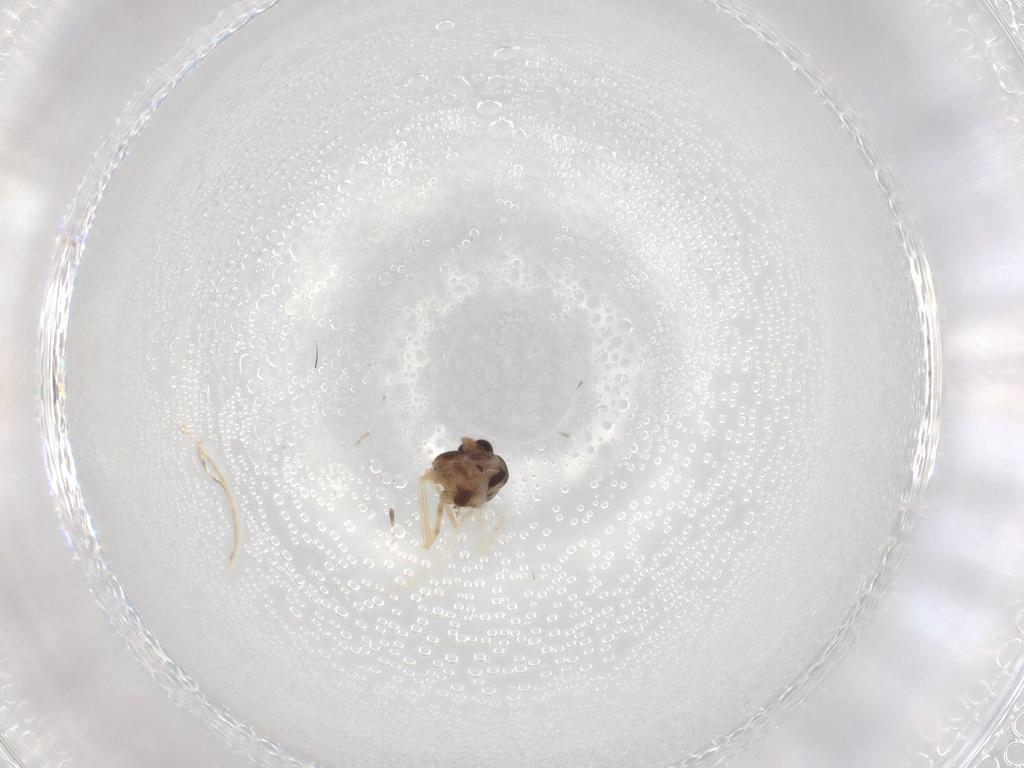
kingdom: Animalia
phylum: Arthropoda
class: Insecta
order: Diptera
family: Chironomidae
